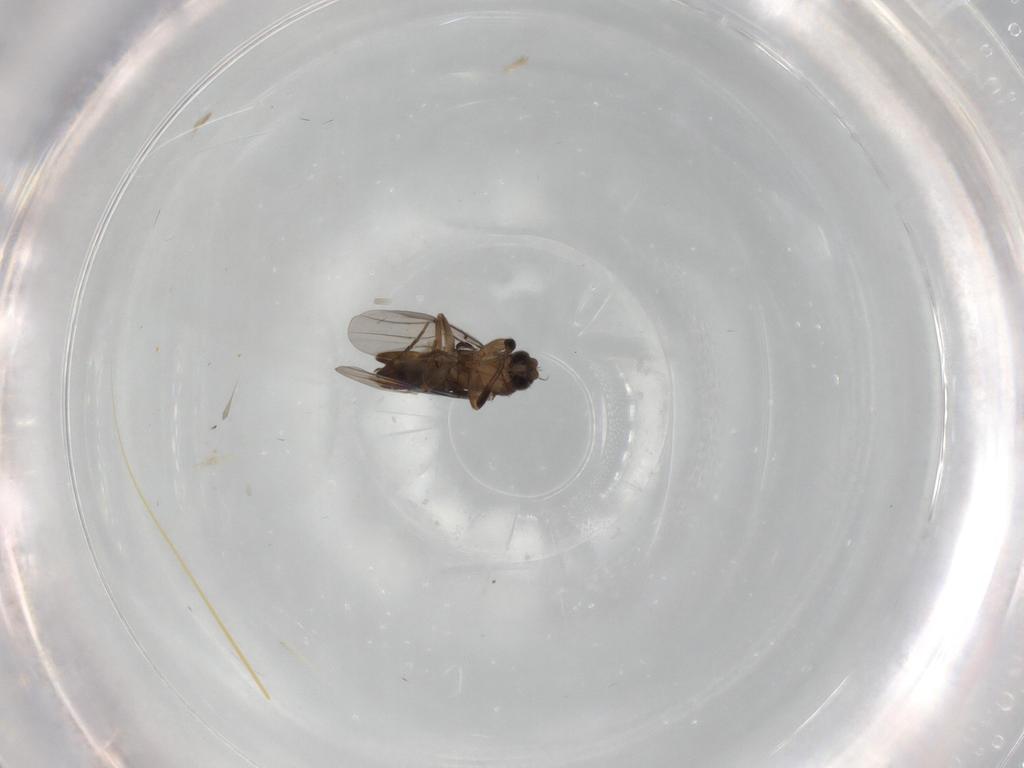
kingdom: Animalia
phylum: Arthropoda
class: Insecta
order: Diptera
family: Phoridae
